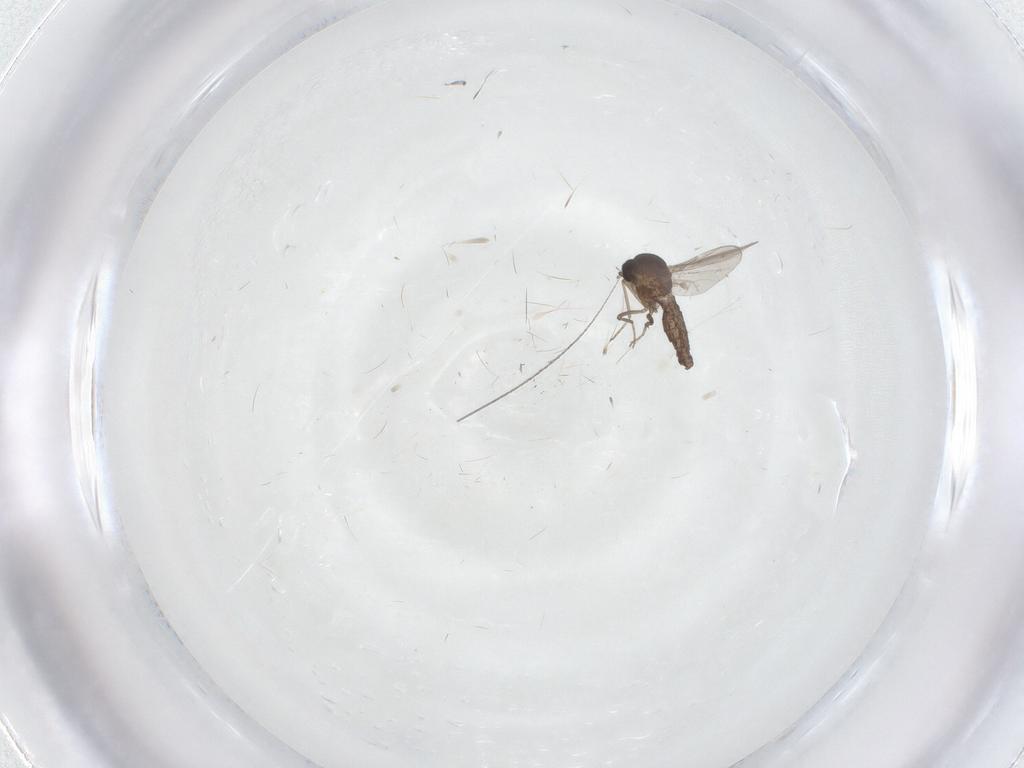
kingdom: Animalia
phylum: Arthropoda
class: Insecta
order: Diptera
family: Ceratopogonidae
